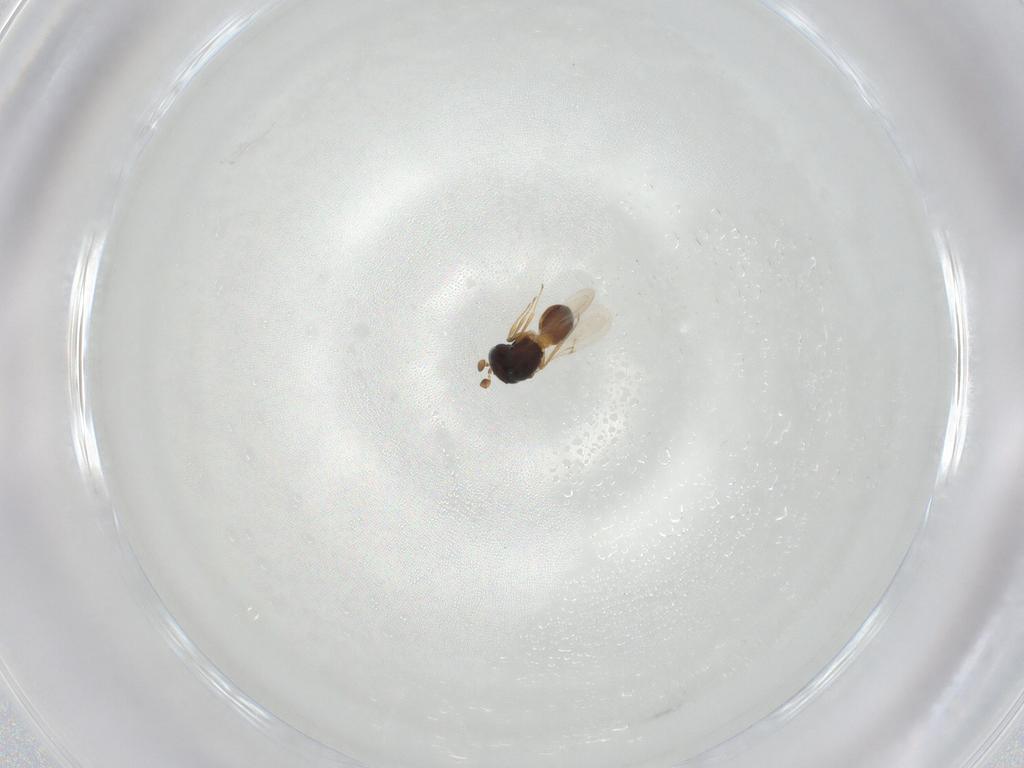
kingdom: Animalia
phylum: Arthropoda
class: Insecta
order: Hymenoptera
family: Scelionidae
